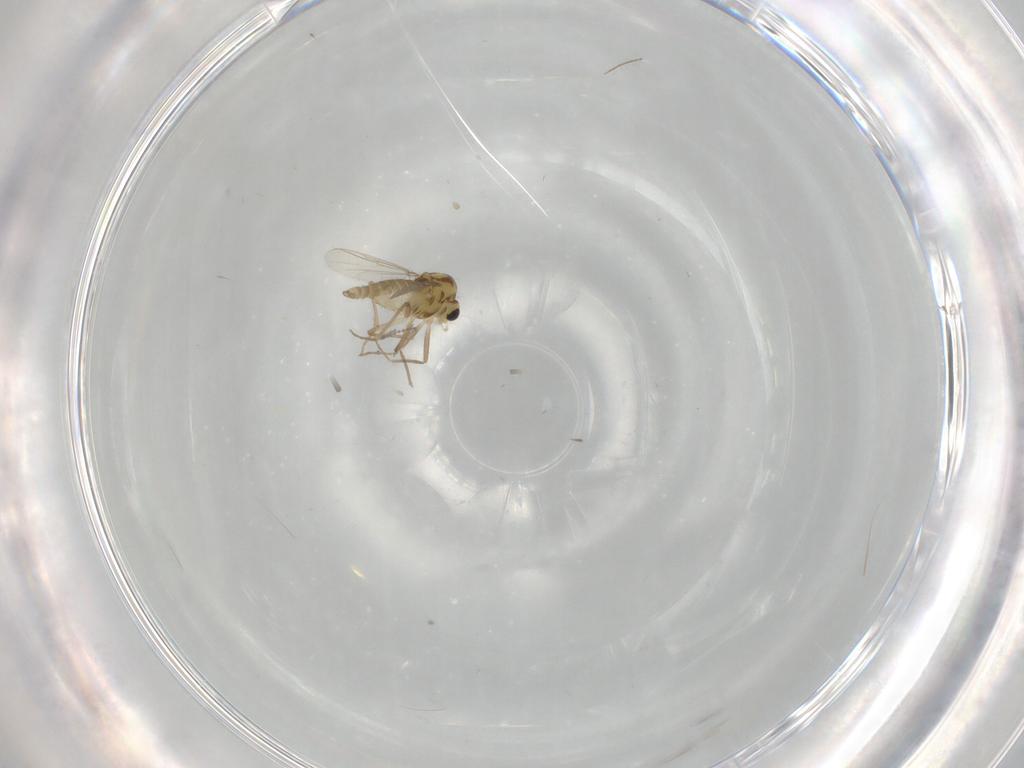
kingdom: Animalia
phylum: Arthropoda
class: Insecta
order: Diptera
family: Chironomidae
